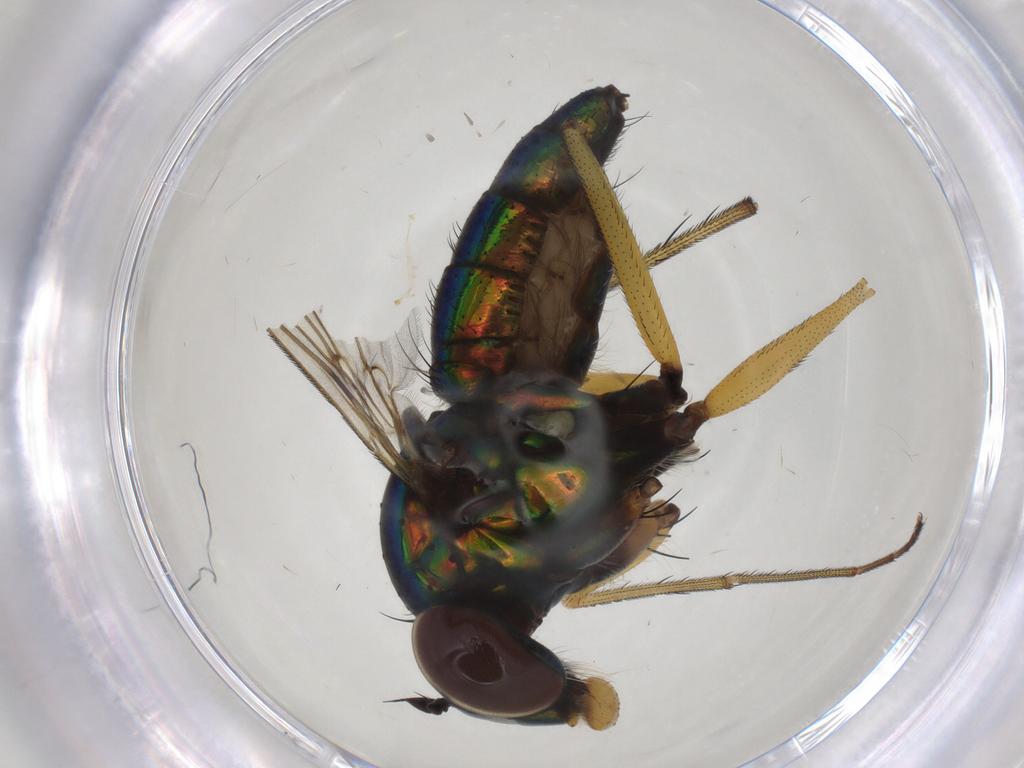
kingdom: Animalia
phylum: Arthropoda
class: Insecta
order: Diptera
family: Dolichopodidae
